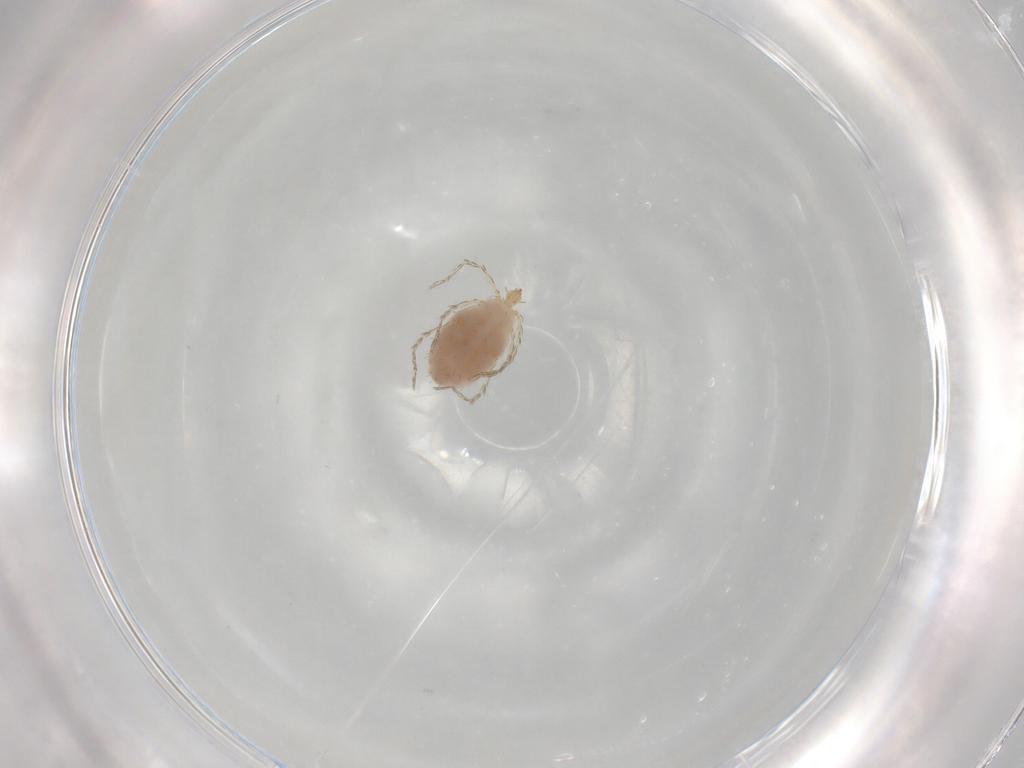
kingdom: Animalia
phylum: Arthropoda
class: Arachnida
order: Trombidiformes
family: Erythraeidae
